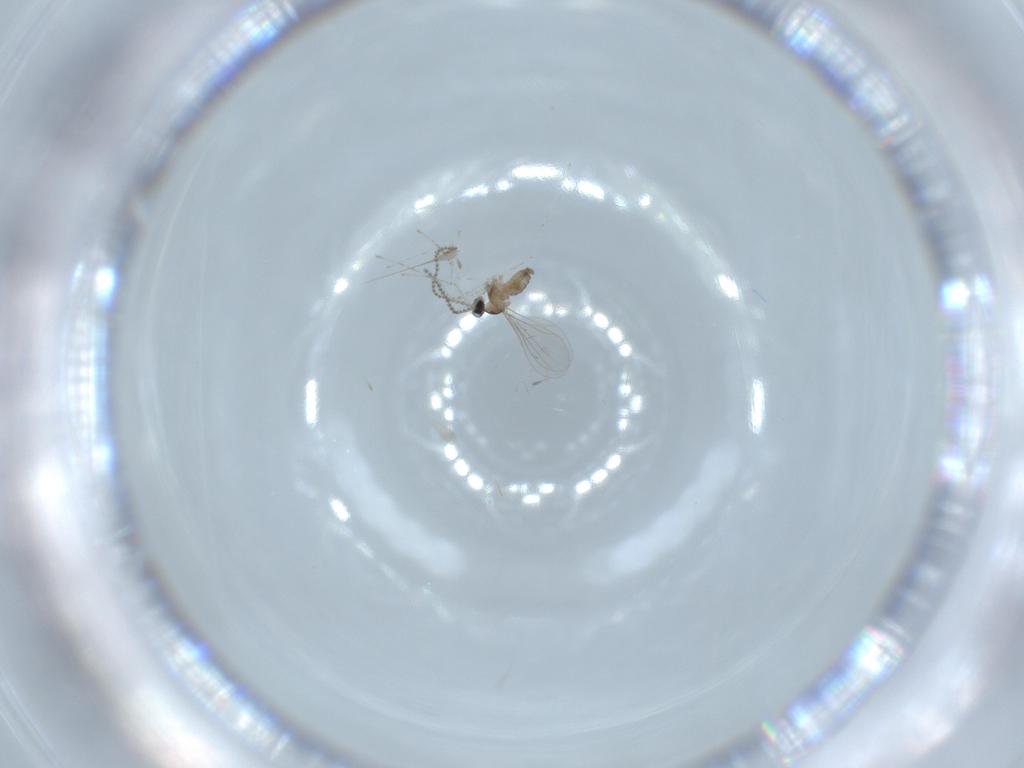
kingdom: Animalia
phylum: Arthropoda
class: Insecta
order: Diptera
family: Cecidomyiidae
